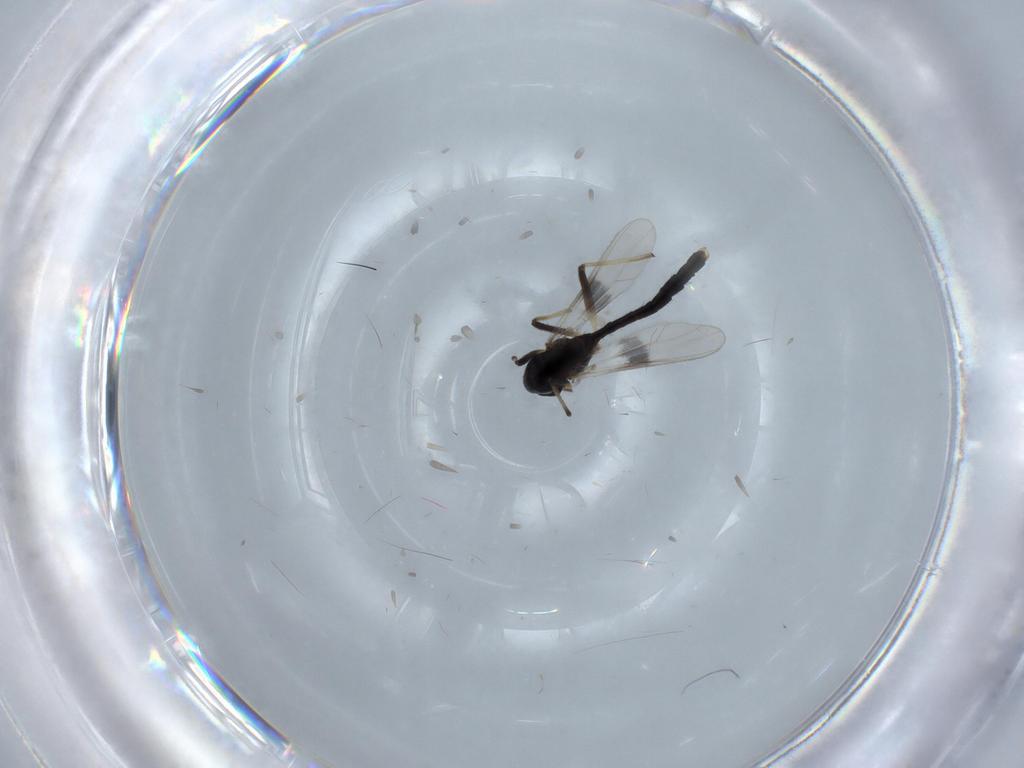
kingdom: Animalia
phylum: Arthropoda
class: Insecta
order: Diptera
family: Chironomidae
